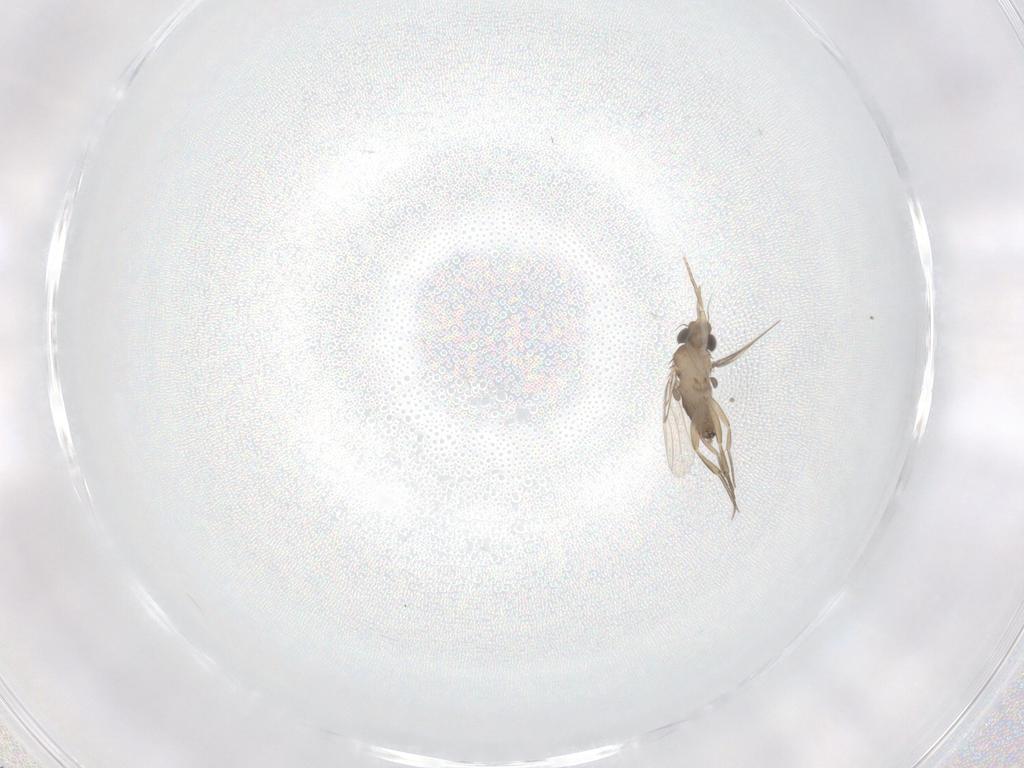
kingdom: Animalia
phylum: Arthropoda
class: Insecta
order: Diptera
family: Phoridae
